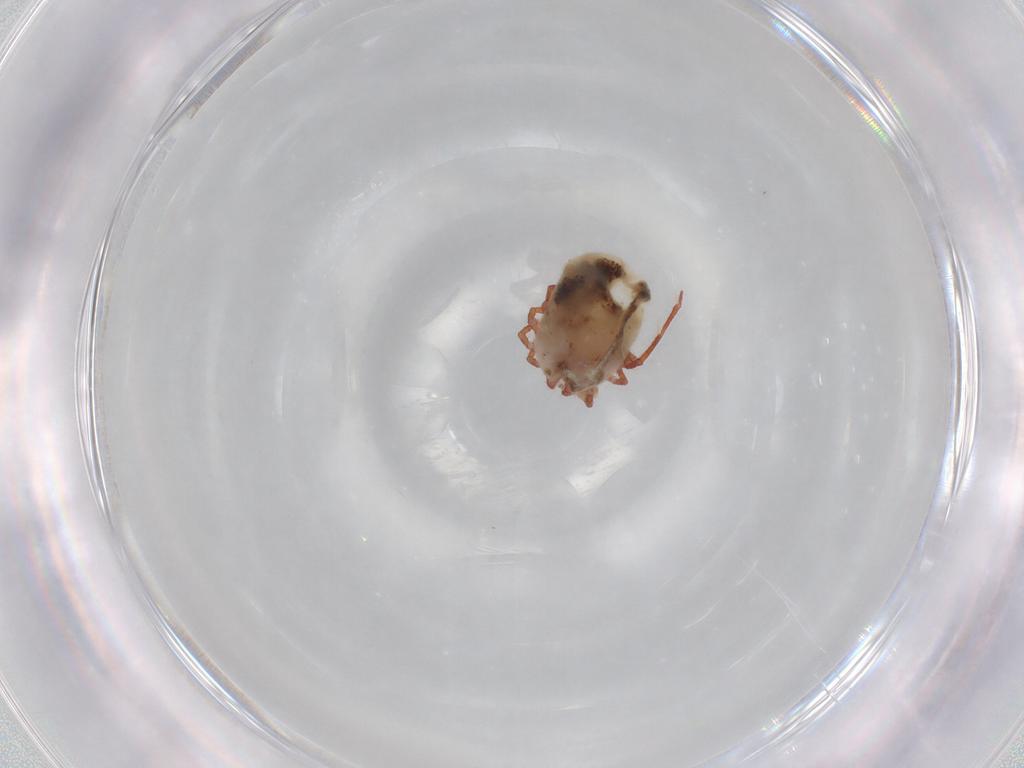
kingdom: Animalia
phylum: Arthropoda
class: Arachnida
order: Trombidiformes
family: Pionidae
